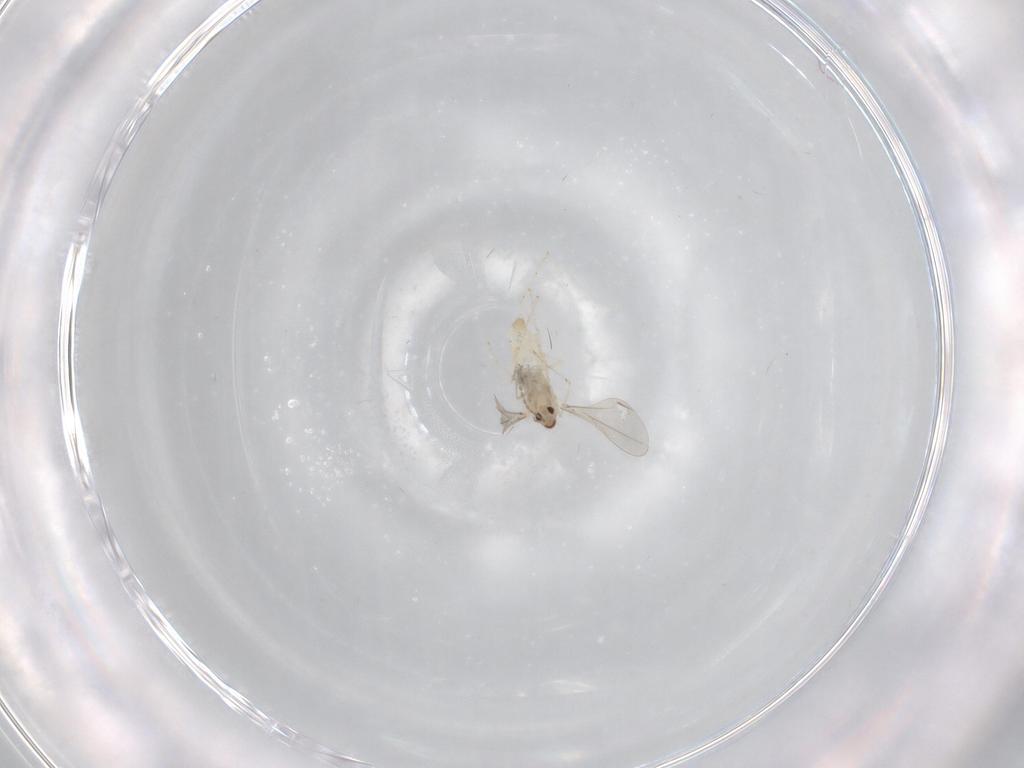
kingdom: Animalia
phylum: Arthropoda
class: Insecta
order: Diptera
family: Cecidomyiidae
